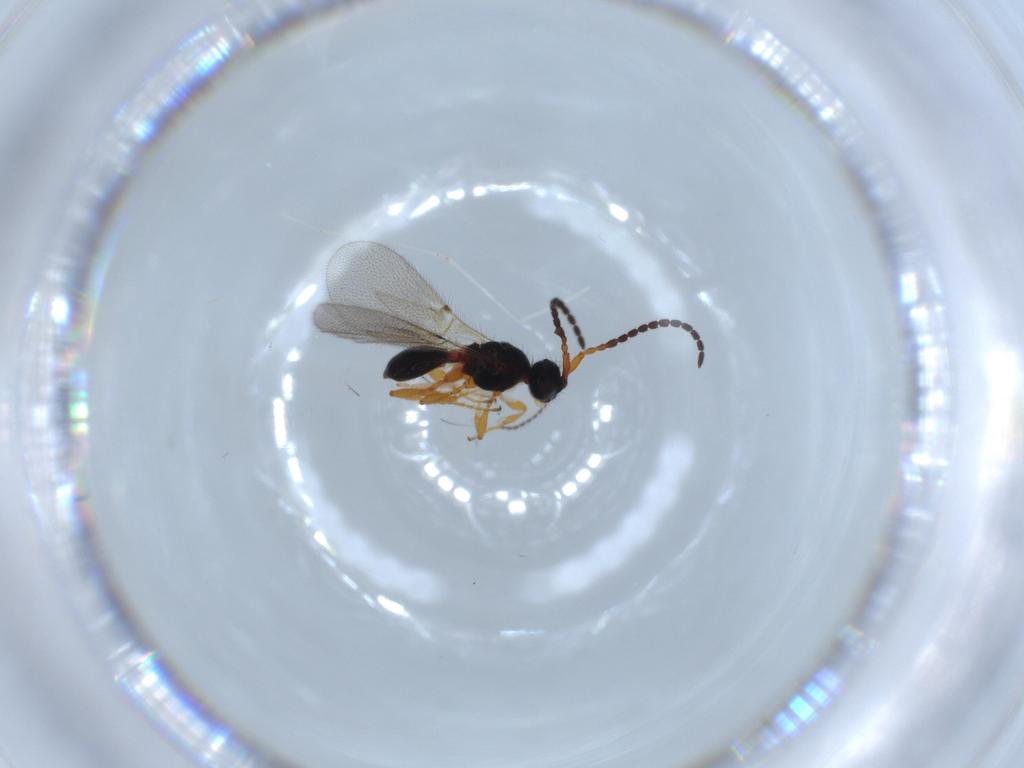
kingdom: Animalia
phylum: Arthropoda
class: Insecta
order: Hymenoptera
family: Diapriidae
